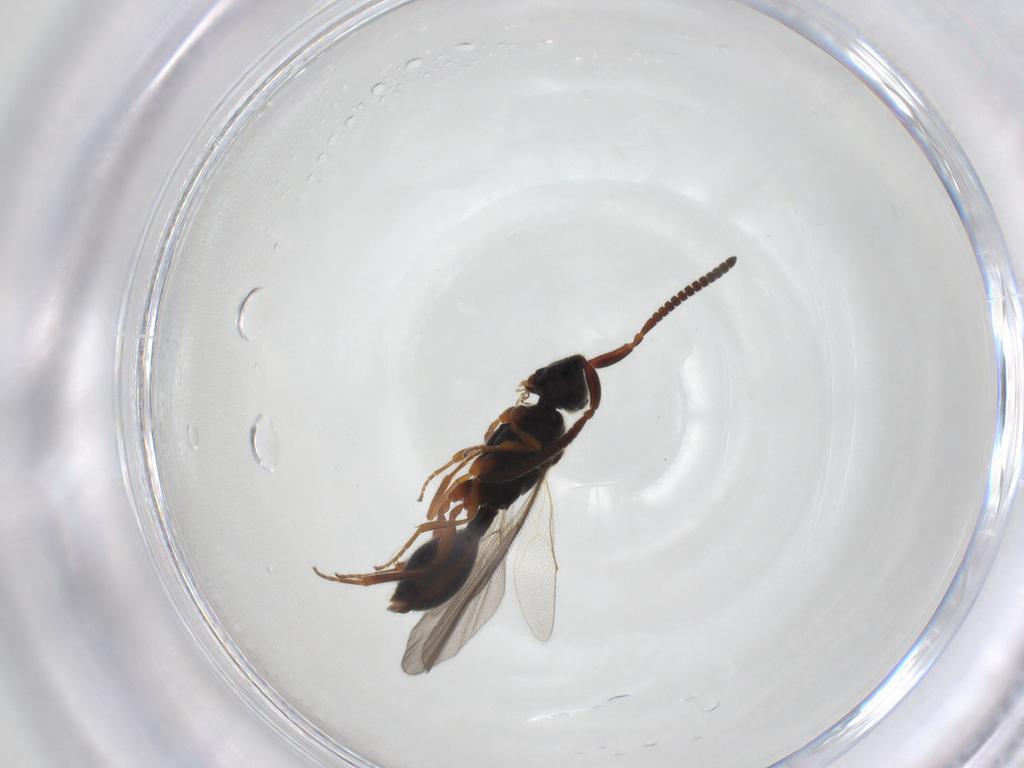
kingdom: Animalia
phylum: Arthropoda
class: Insecta
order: Hymenoptera
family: Diapriidae
